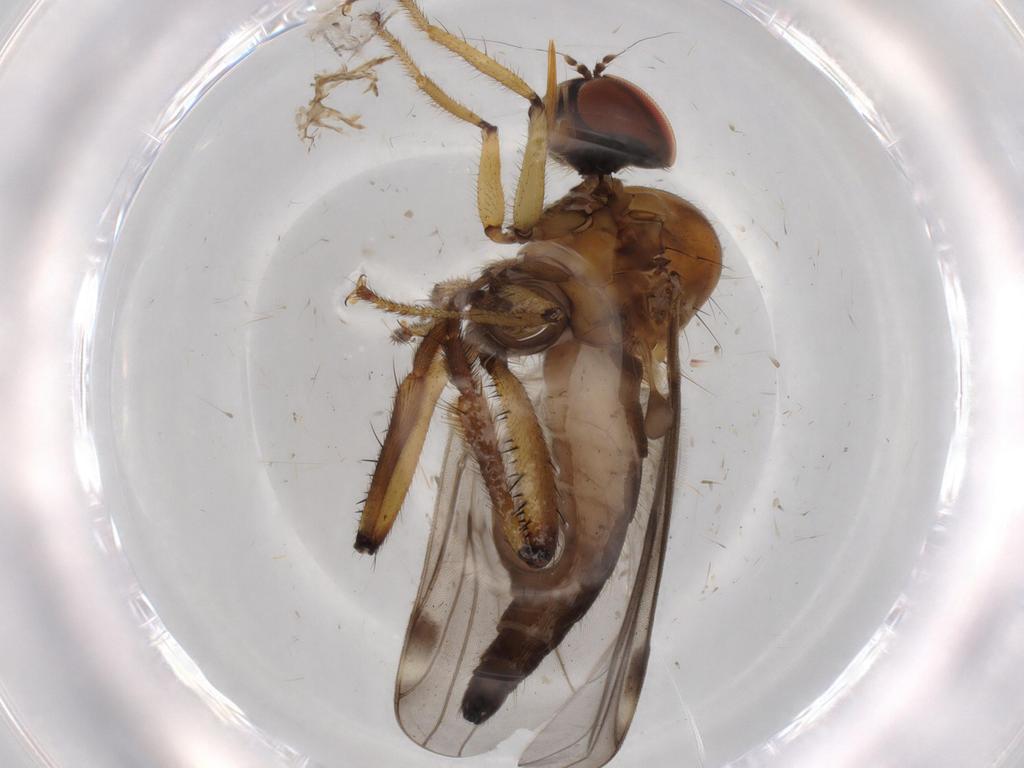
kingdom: Animalia
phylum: Arthropoda
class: Insecta
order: Diptera
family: Hybotidae
